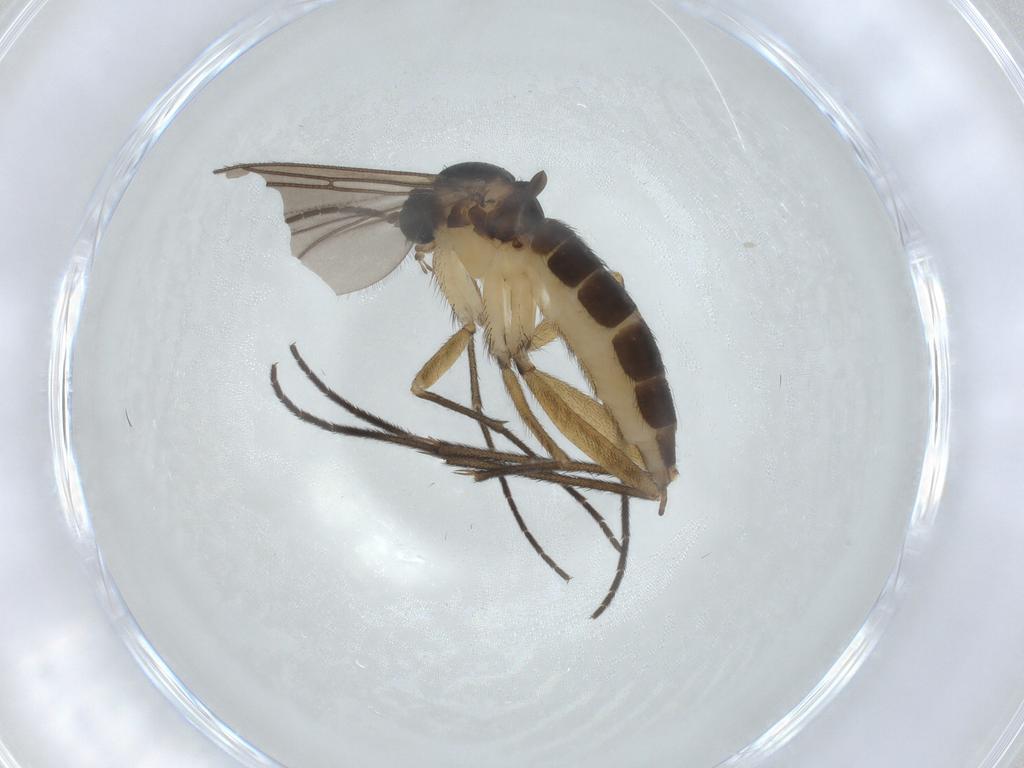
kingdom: Animalia
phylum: Arthropoda
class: Insecta
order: Diptera
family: Sciaridae
